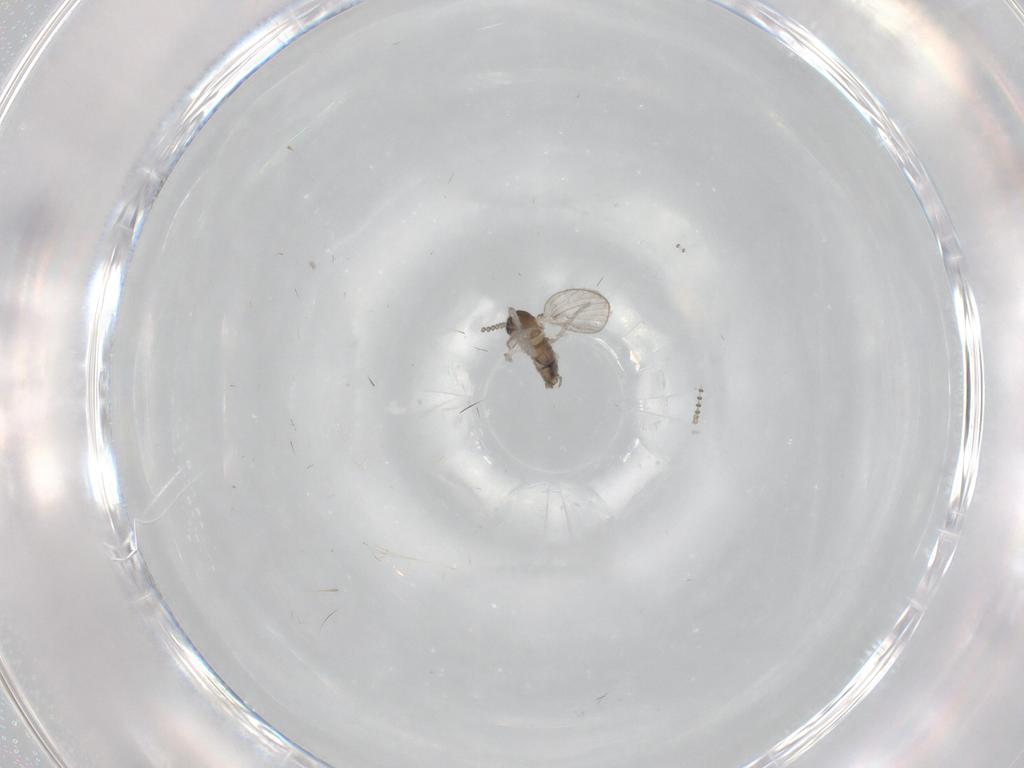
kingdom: Animalia
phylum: Arthropoda
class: Insecta
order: Diptera
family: Psychodidae
